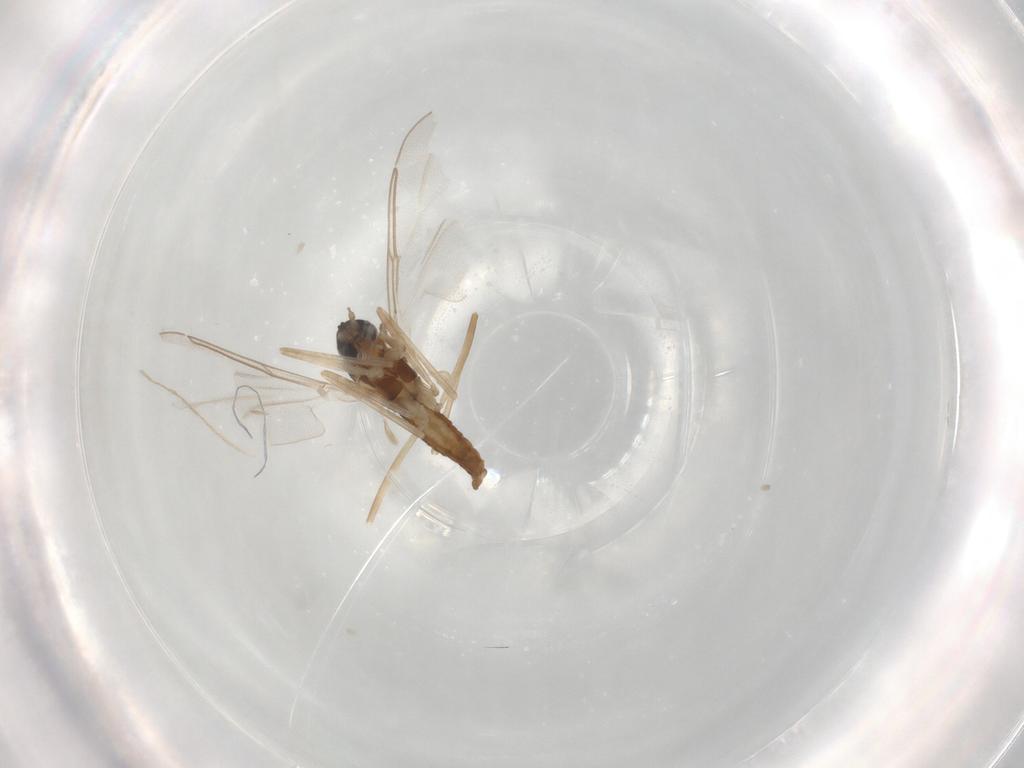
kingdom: Animalia
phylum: Arthropoda
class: Insecta
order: Diptera
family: Cecidomyiidae
